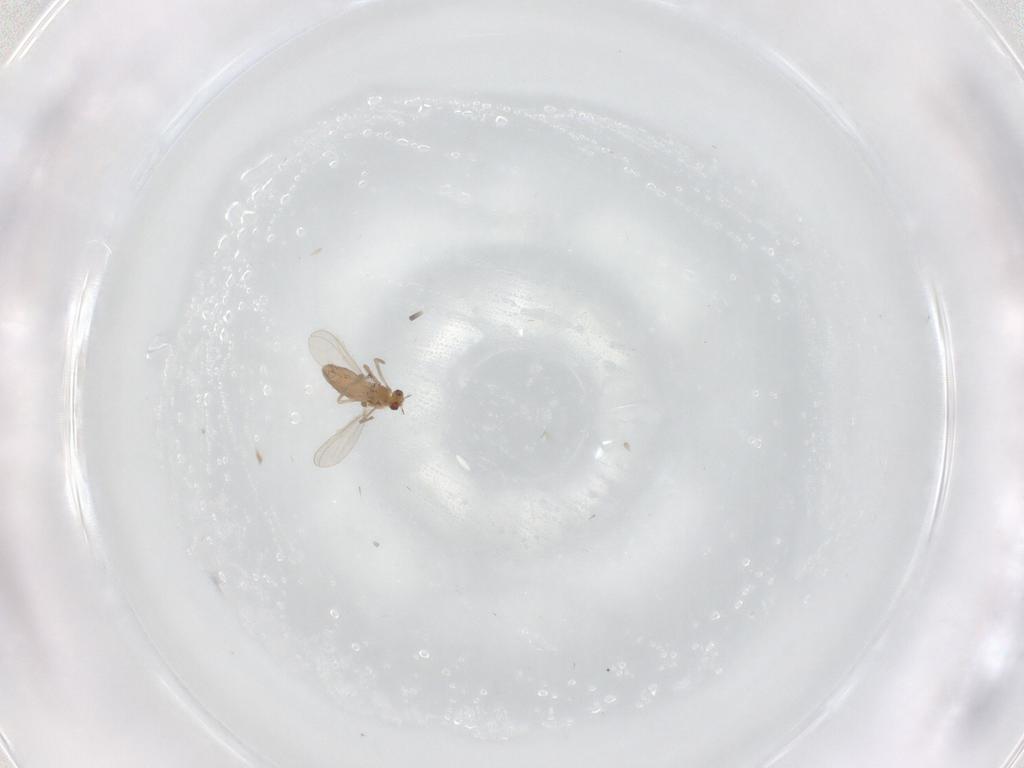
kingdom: Animalia
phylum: Arthropoda
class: Insecta
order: Diptera
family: Chironomidae
